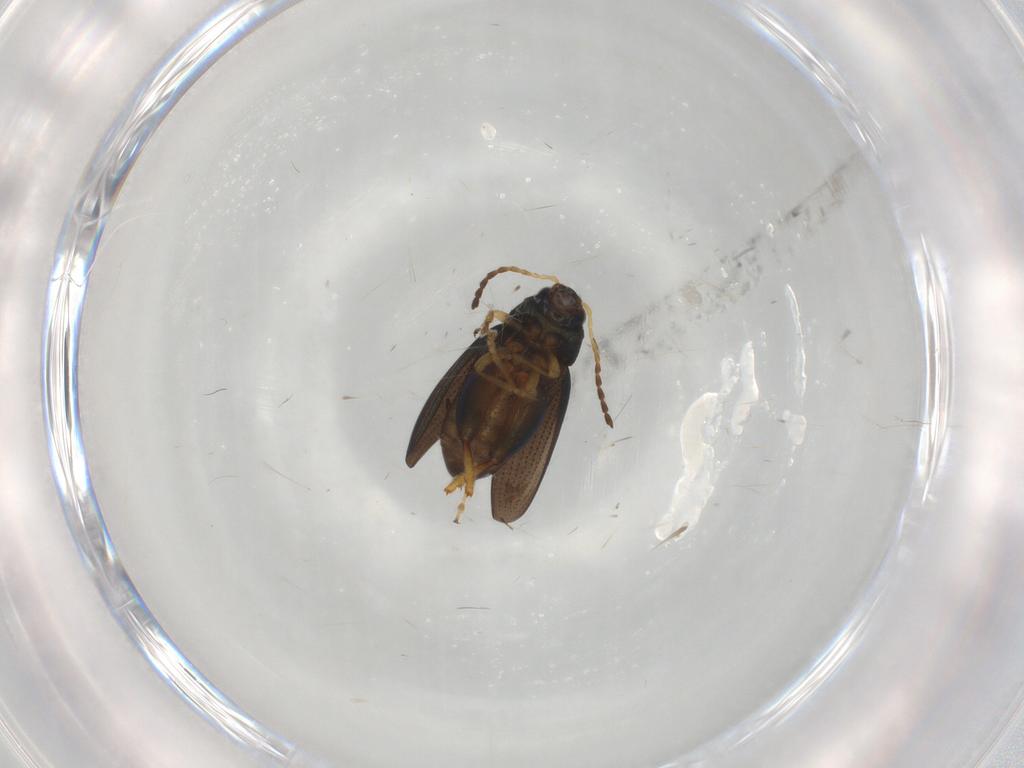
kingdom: Animalia
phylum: Arthropoda
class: Insecta
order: Coleoptera
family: Chrysomelidae
